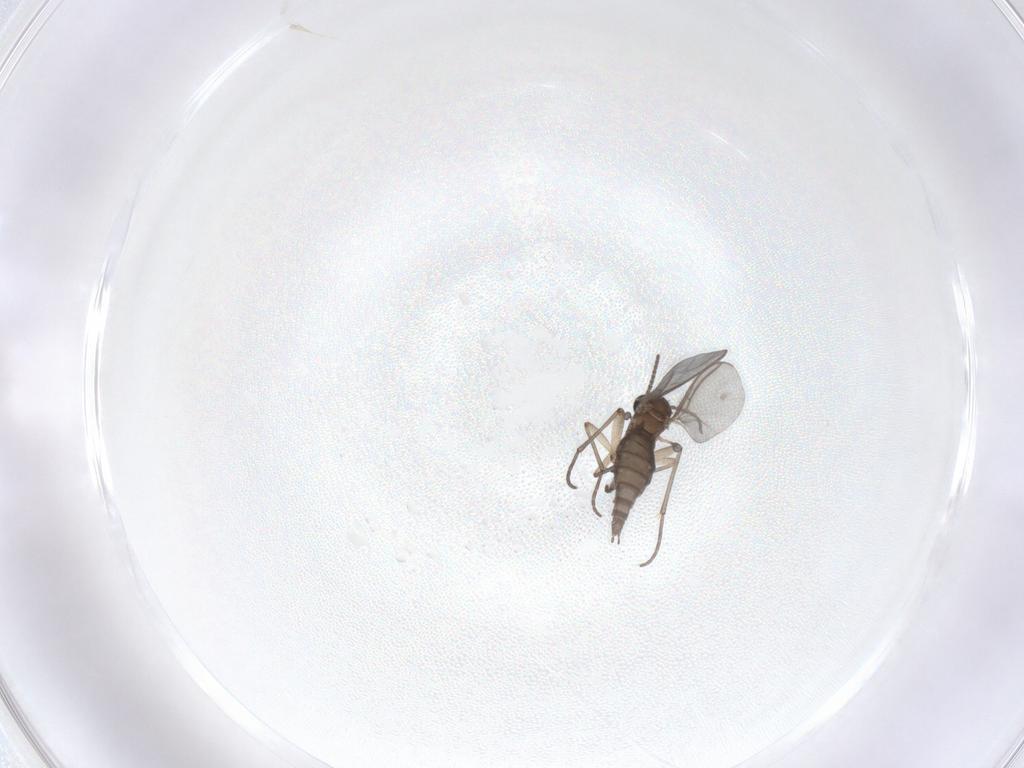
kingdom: Animalia
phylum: Arthropoda
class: Insecta
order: Diptera
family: Sciaridae
